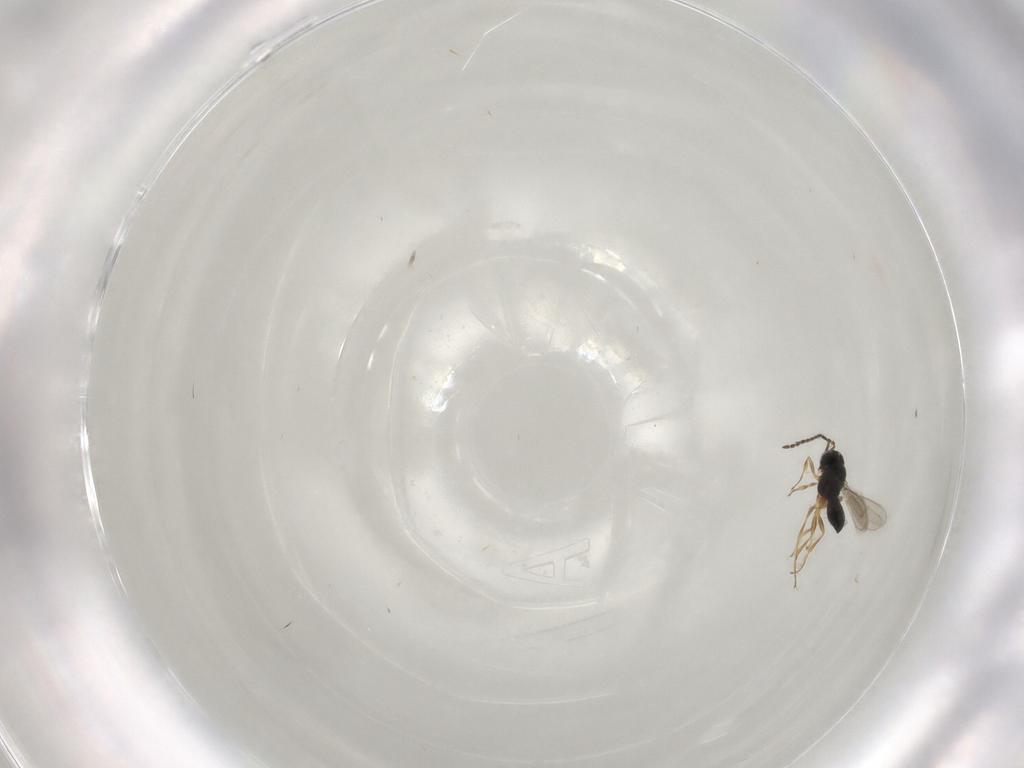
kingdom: Animalia
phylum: Arthropoda
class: Insecta
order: Hymenoptera
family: Scelionidae
